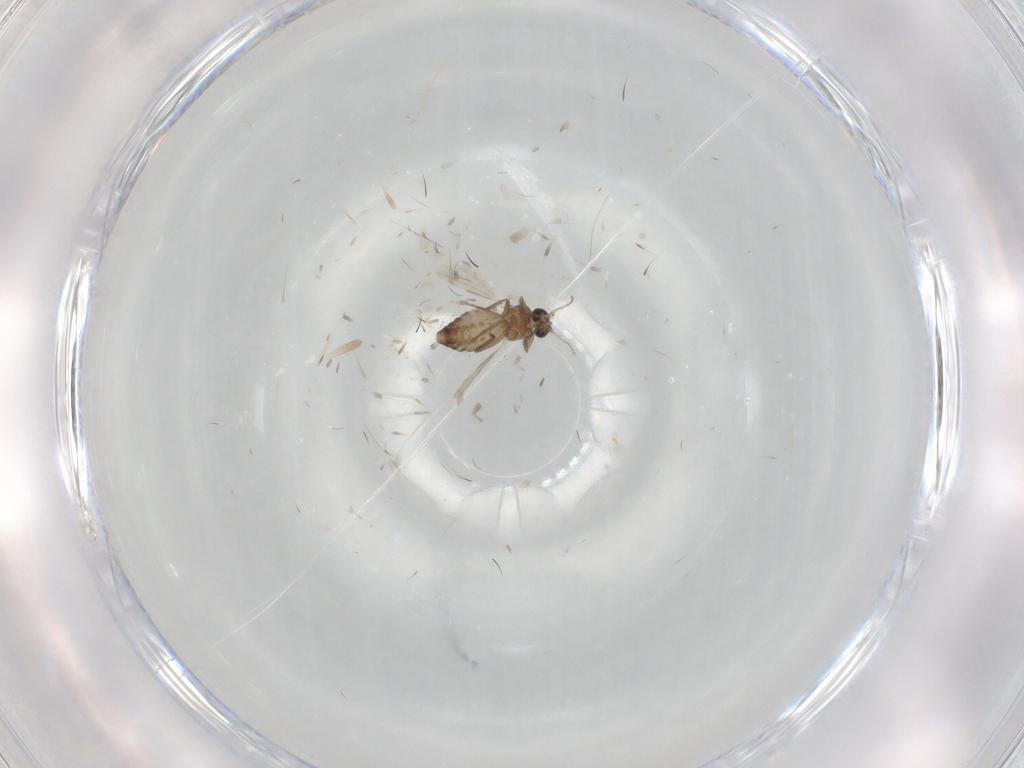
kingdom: Animalia
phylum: Arthropoda
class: Insecta
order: Diptera
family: Ceratopogonidae
